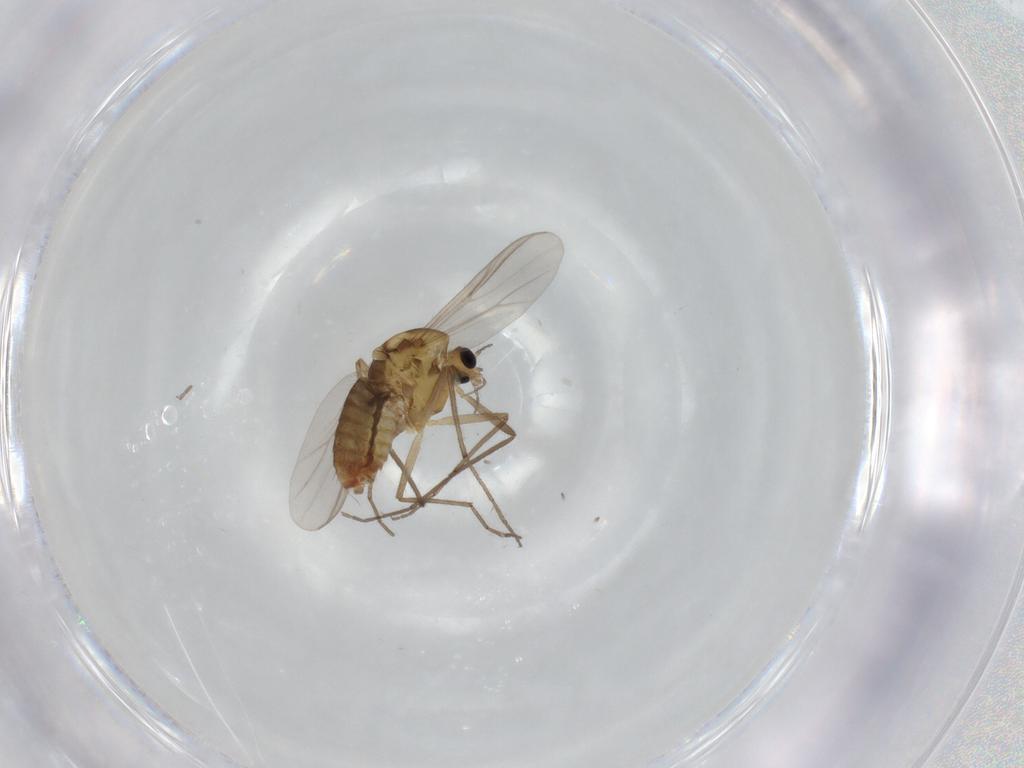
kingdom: Animalia
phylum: Arthropoda
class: Insecta
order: Diptera
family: Chironomidae
